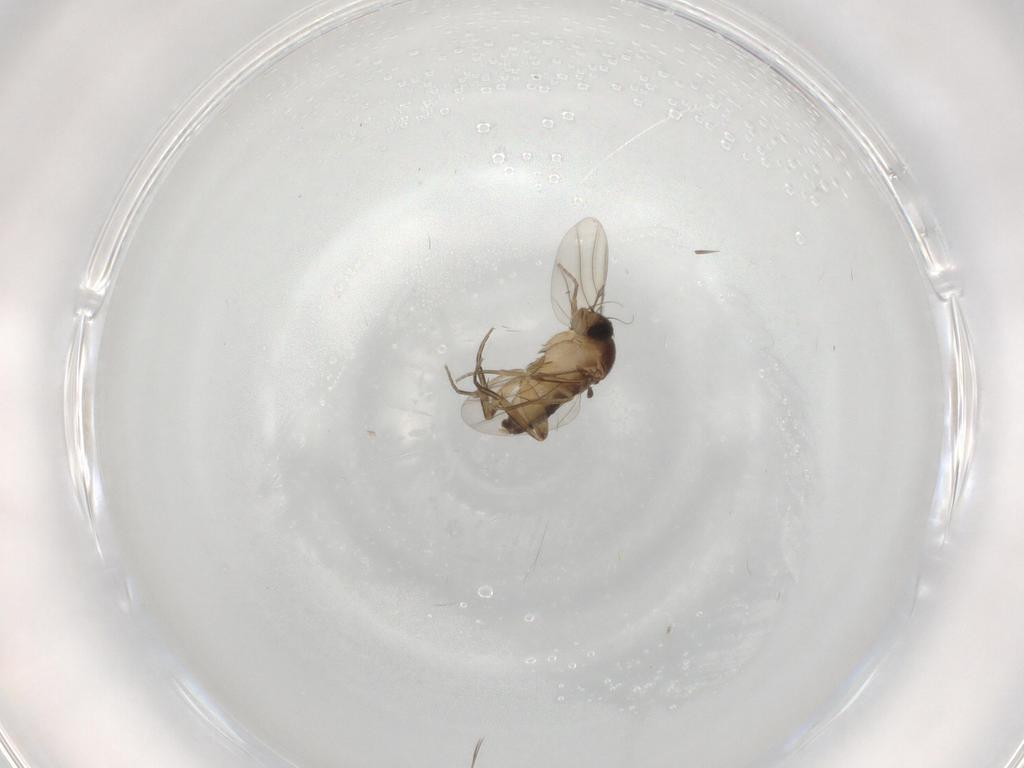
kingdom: Animalia
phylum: Arthropoda
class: Insecta
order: Diptera
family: Phoridae
